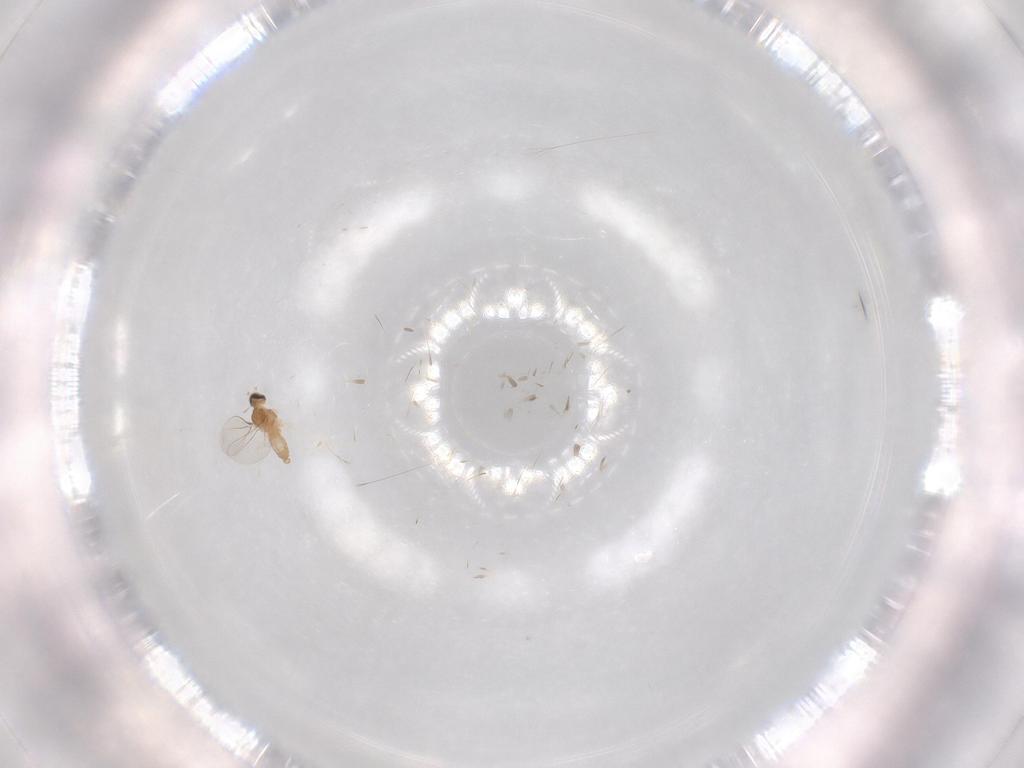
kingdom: Animalia
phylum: Arthropoda
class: Insecta
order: Diptera
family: Cecidomyiidae
